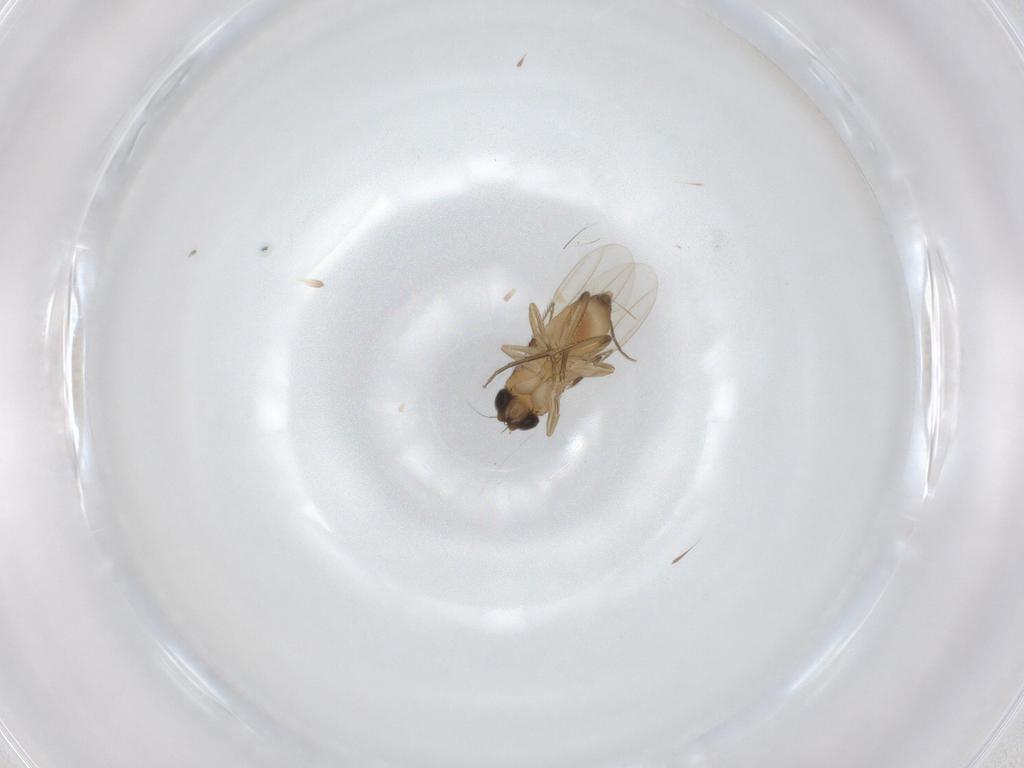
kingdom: Animalia
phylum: Arthropoda
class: Insecta
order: Diptera
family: Phoridae
